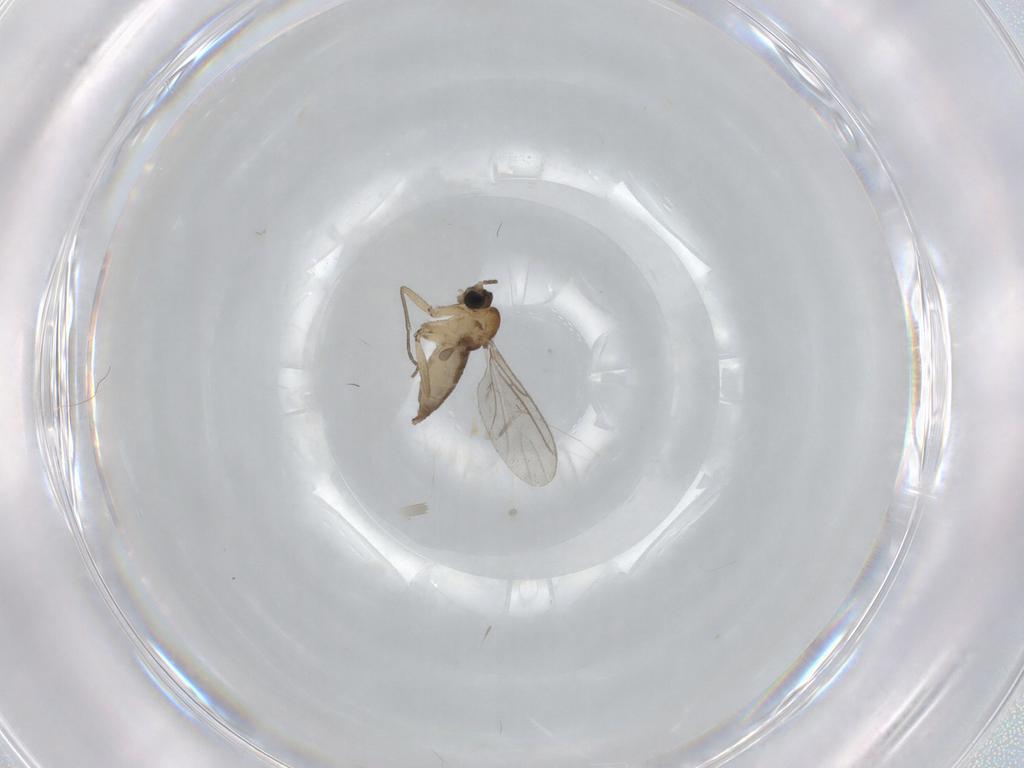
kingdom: Animalia
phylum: Arthropoda
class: Insecta
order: Diptera
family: Sciaridae
